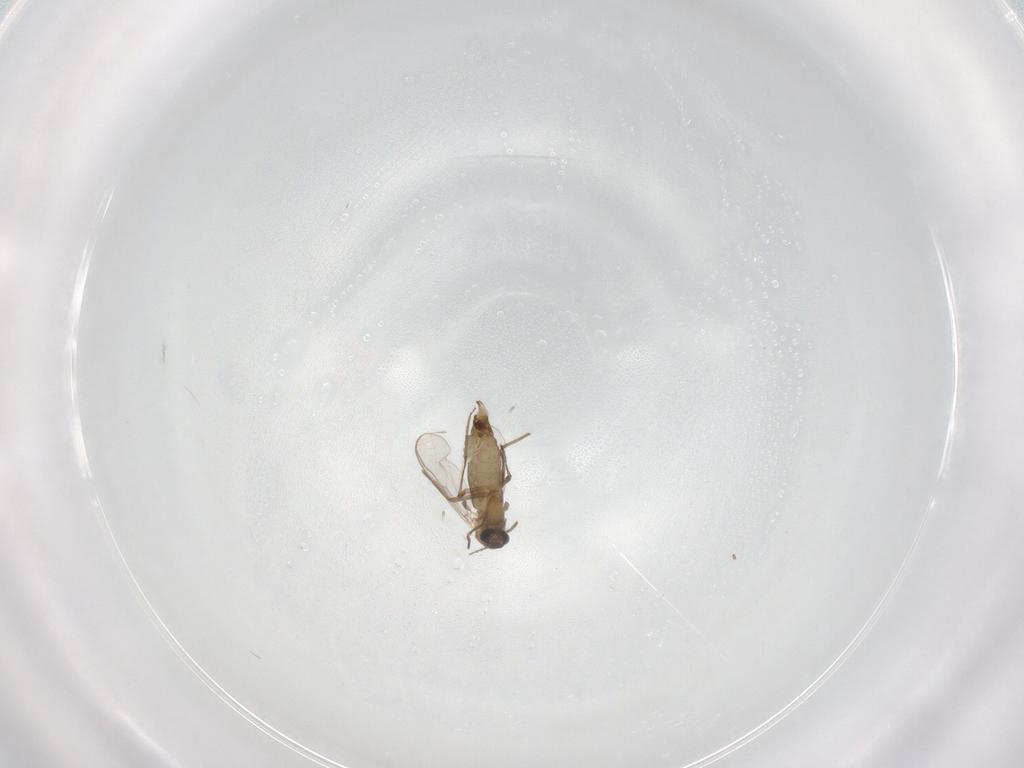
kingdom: Animalia
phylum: Arthropoda
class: Insecta
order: Diptera
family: Chironomidae
